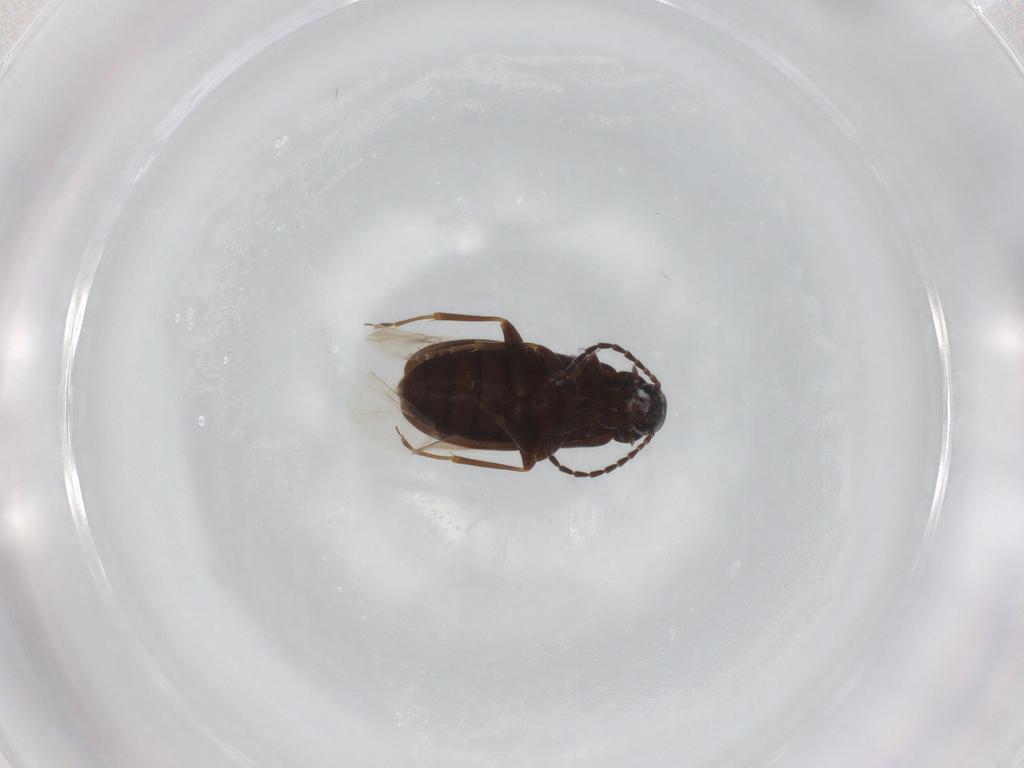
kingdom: Animalia
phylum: Arthropoda
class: Insecta
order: Coleoptera
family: Scraptiidae
